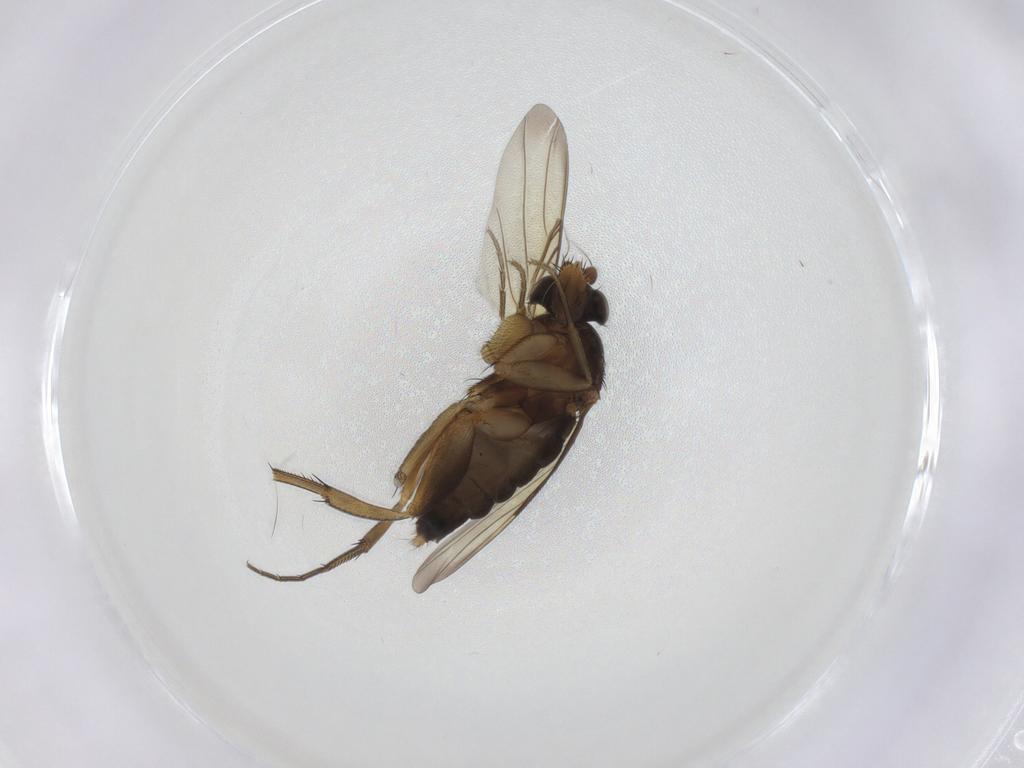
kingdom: Animalia
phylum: Arthropoda
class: Insecta
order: Diptera
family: Phoridae
